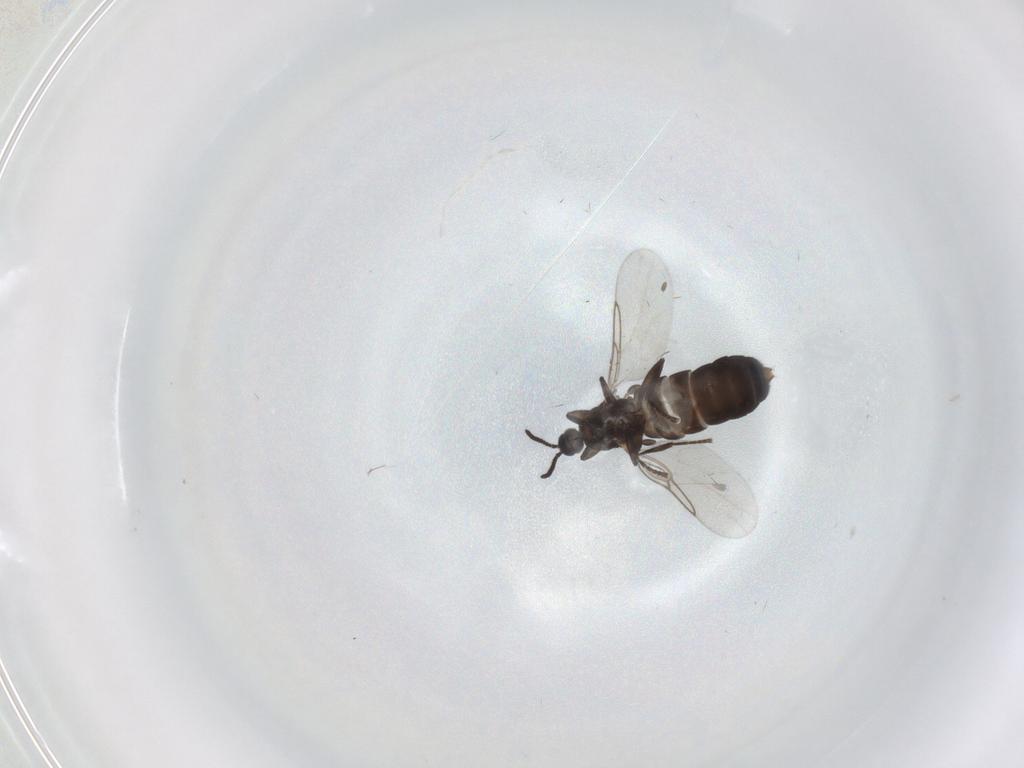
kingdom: Animalia
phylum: Arthropoda
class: Insecta
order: Diptera
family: Scatopsidae
